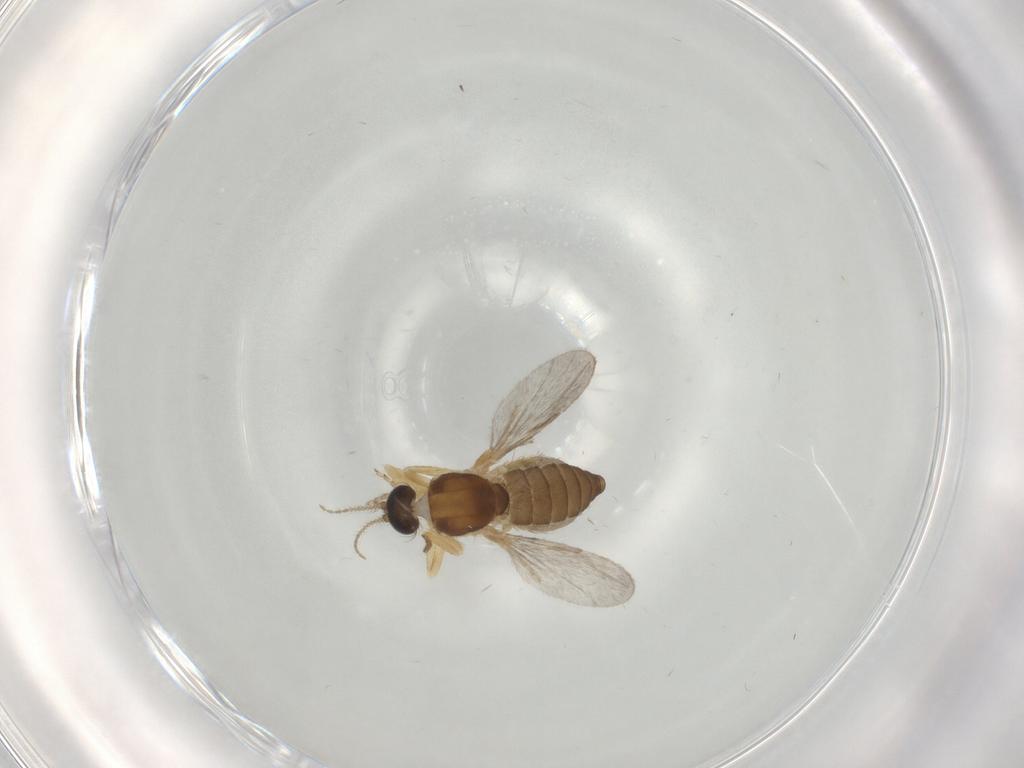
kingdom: Animalia
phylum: Arthropoda
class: Insecta
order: Diptera
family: Ceratopogonidae
